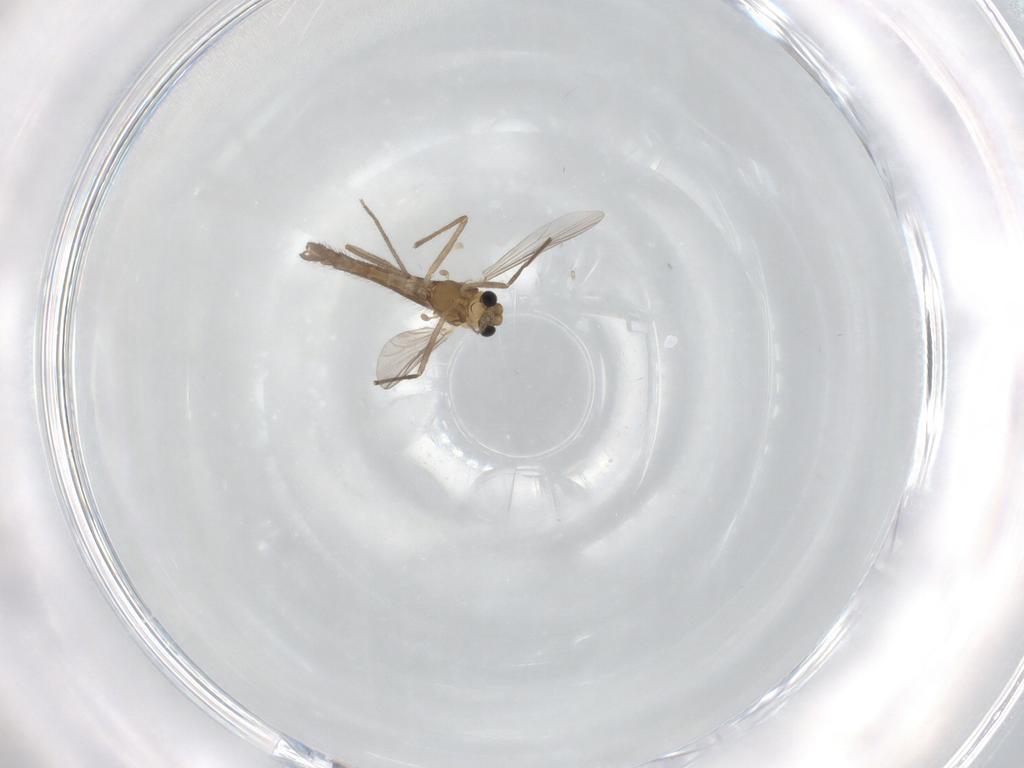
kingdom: Animalia
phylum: Arthropoda
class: Insecta
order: Diptera
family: Chironomidae
